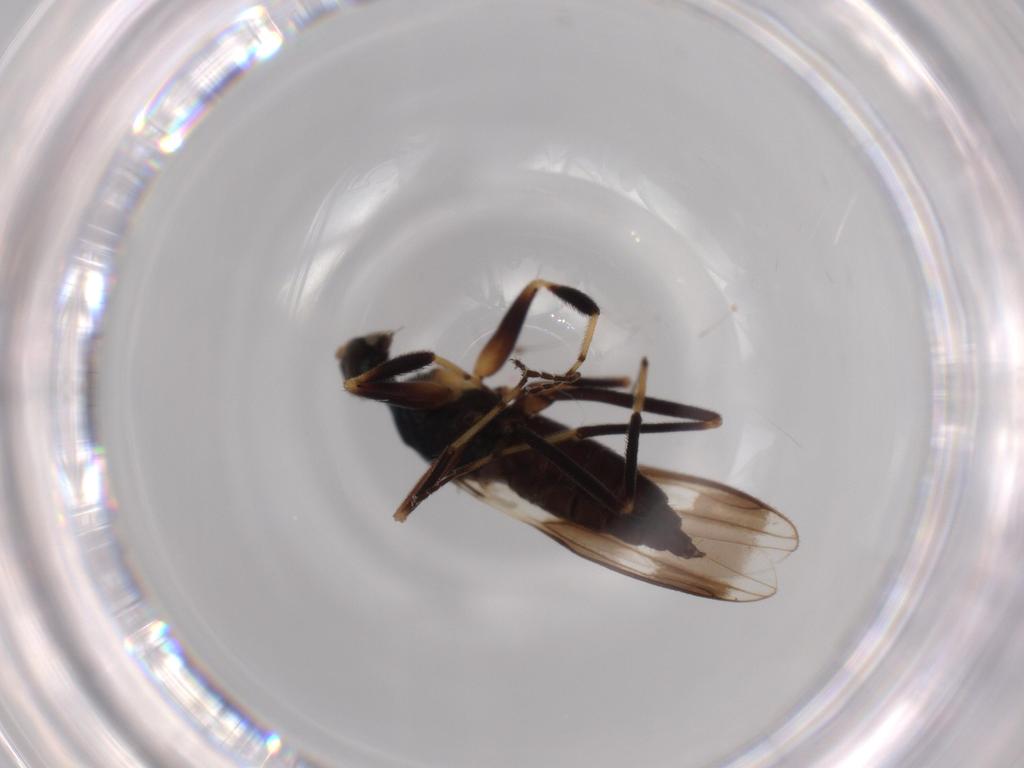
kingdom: Animalia
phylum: Arthropoda
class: Insecta
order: Diptera
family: Hybotidae
